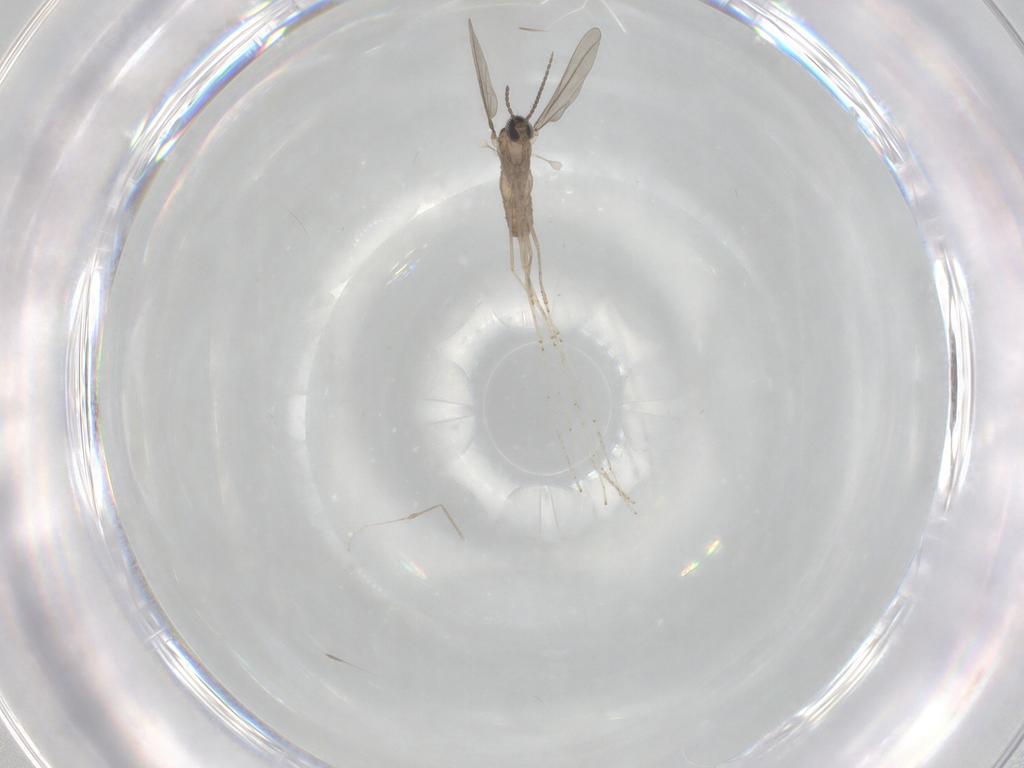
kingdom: Animalia
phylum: Arthropoda
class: Insecta
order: Diptera
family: Cecidomyiidae
